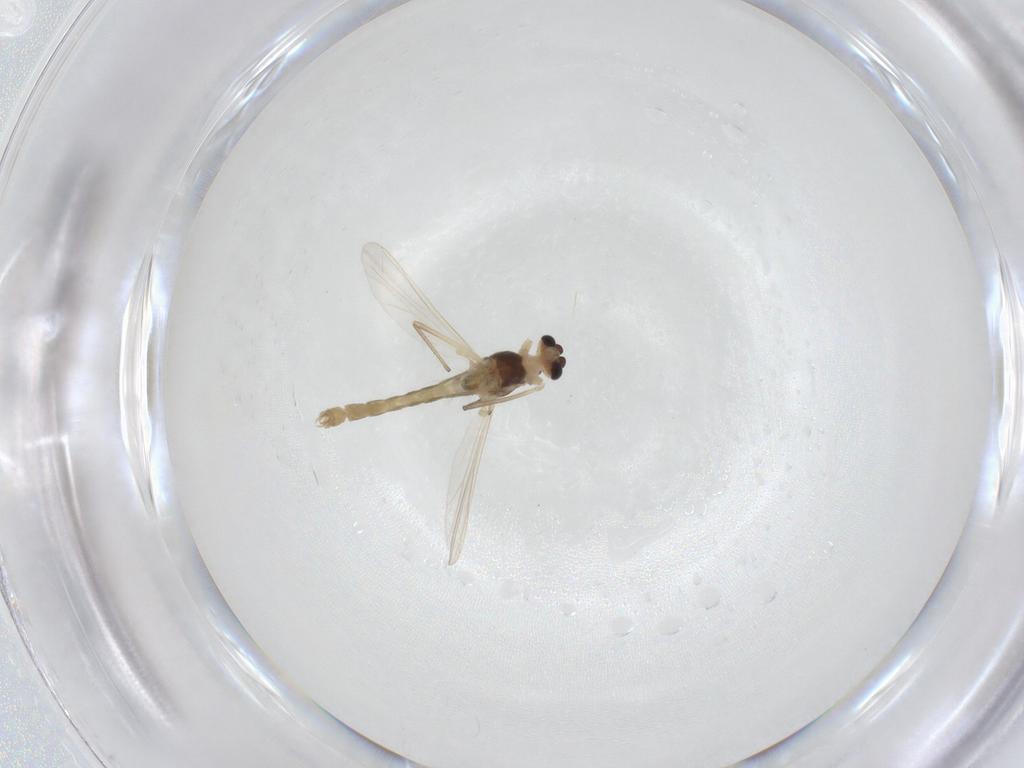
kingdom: Animalia
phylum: Arthropoda
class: Insecta
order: Diptera
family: Chironomidae
